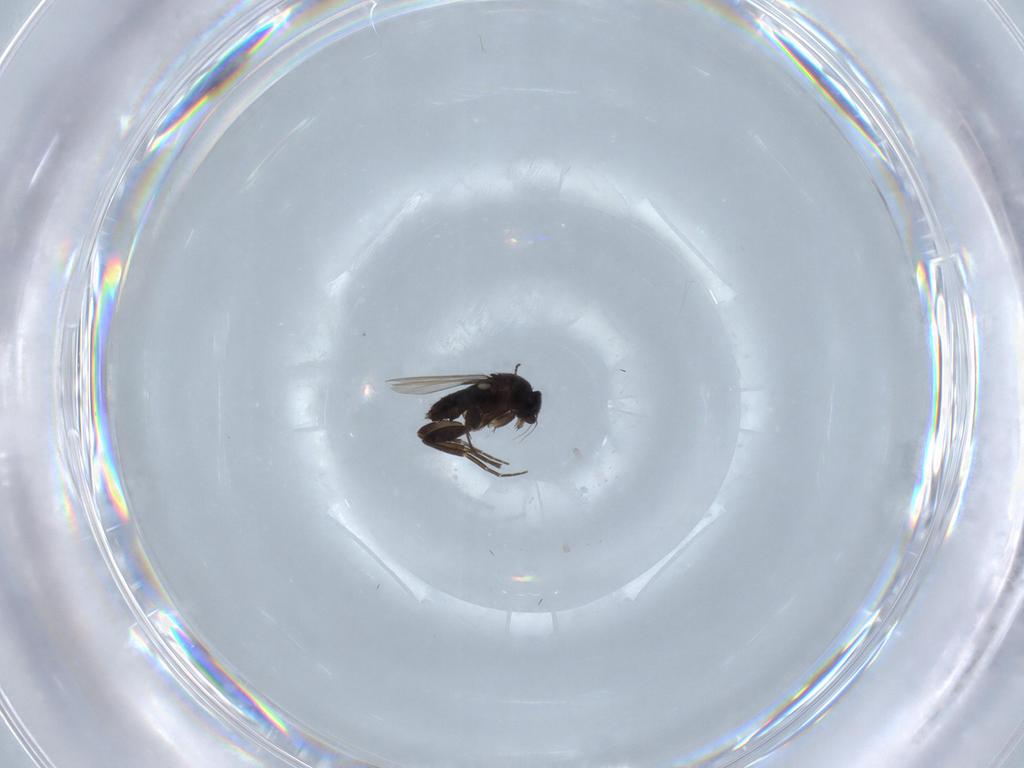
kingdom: Animalia
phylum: Arthropoda
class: Insecta
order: Diptera
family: Phoridae
